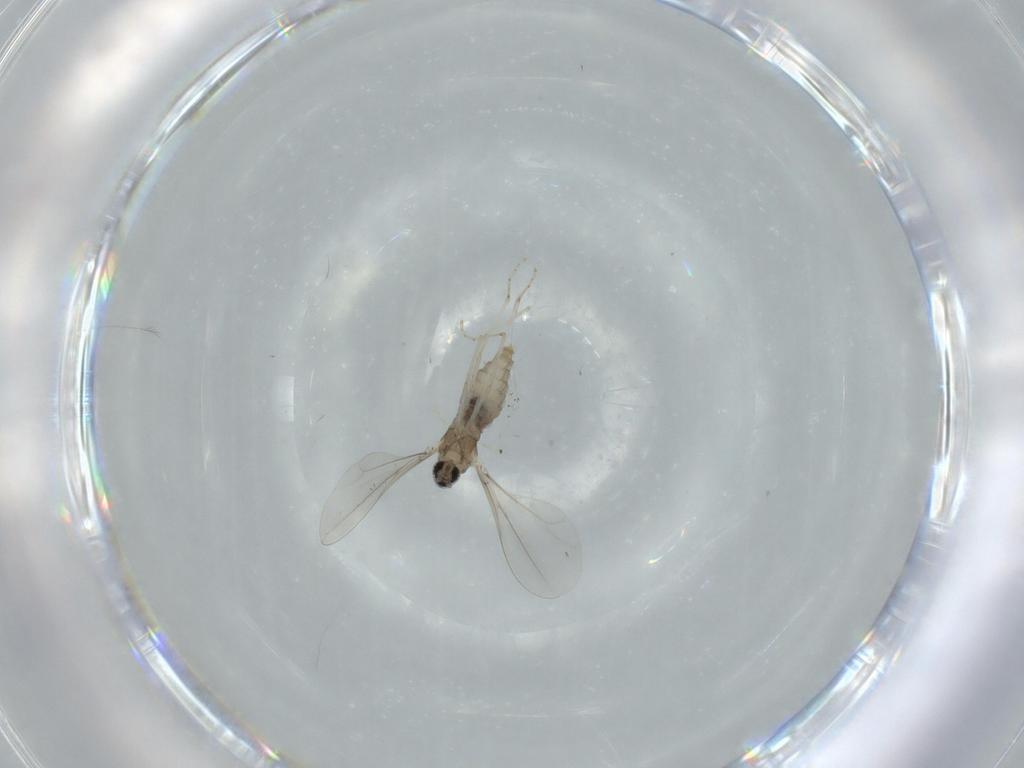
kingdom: Animalia
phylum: Arthropoda
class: Insecta
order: Diptera
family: Cecidomyiidae
